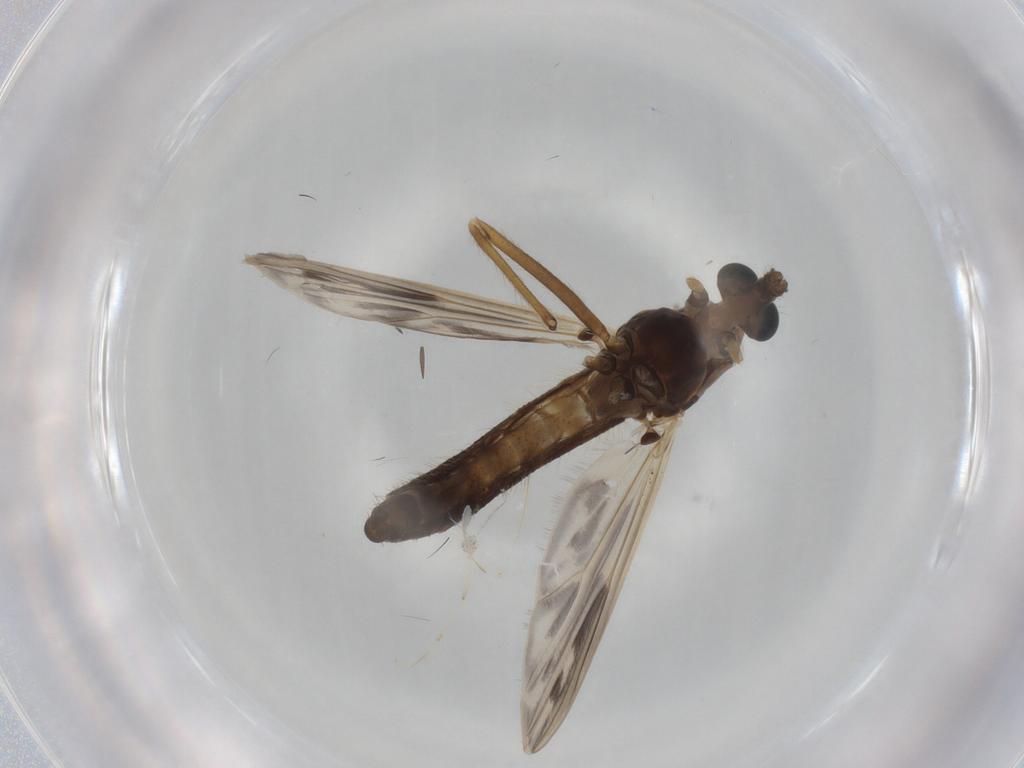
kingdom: Animalia
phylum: Arthropoda
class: Insecta
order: Diptera
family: Ceratopogonidae
